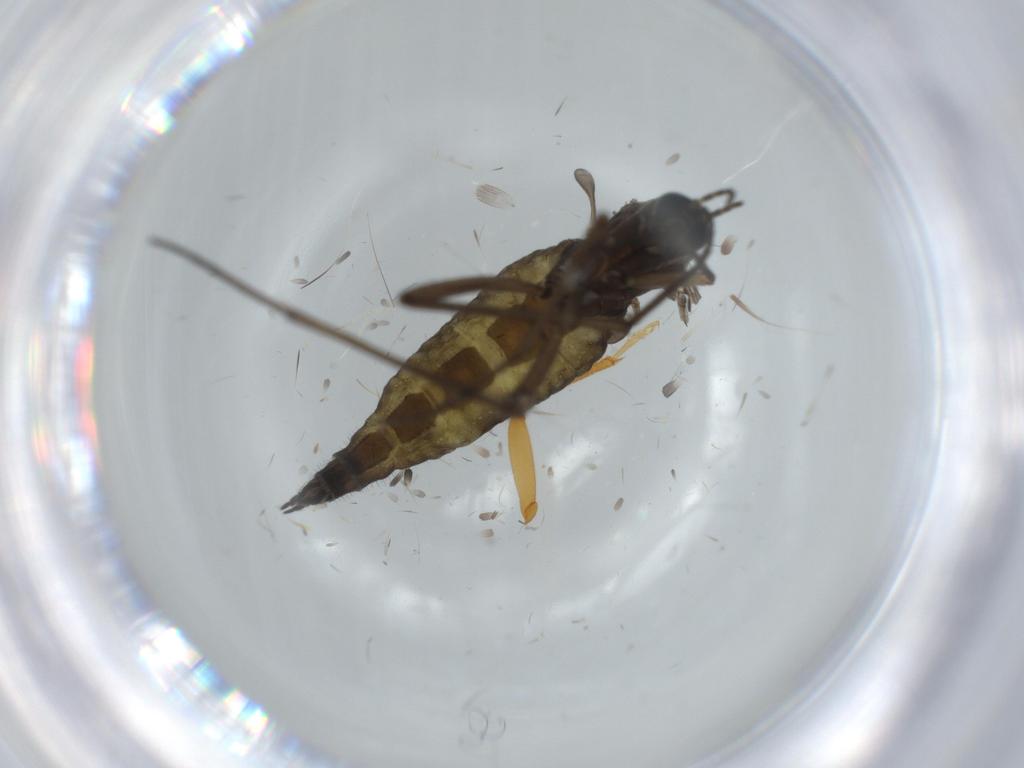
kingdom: Animalia
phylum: Arthropoda
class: Insecta
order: Diptera
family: Sciaridae
